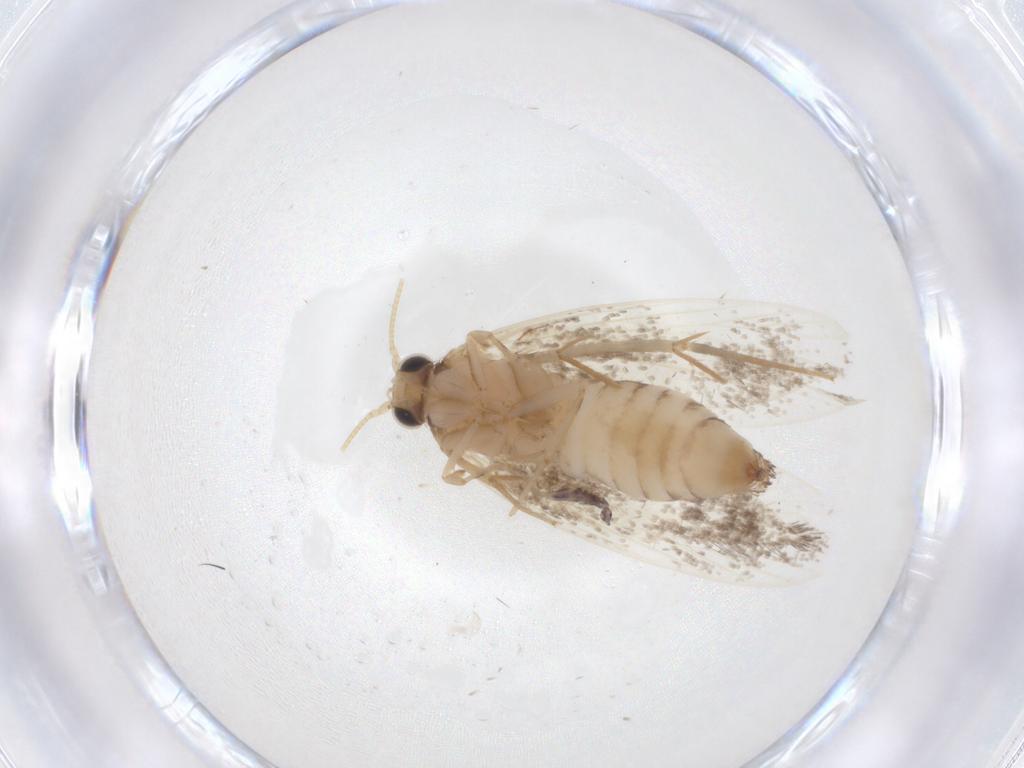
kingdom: Animalia
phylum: Arthropoda
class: Insecta
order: Lepidoptera
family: Tineidae
